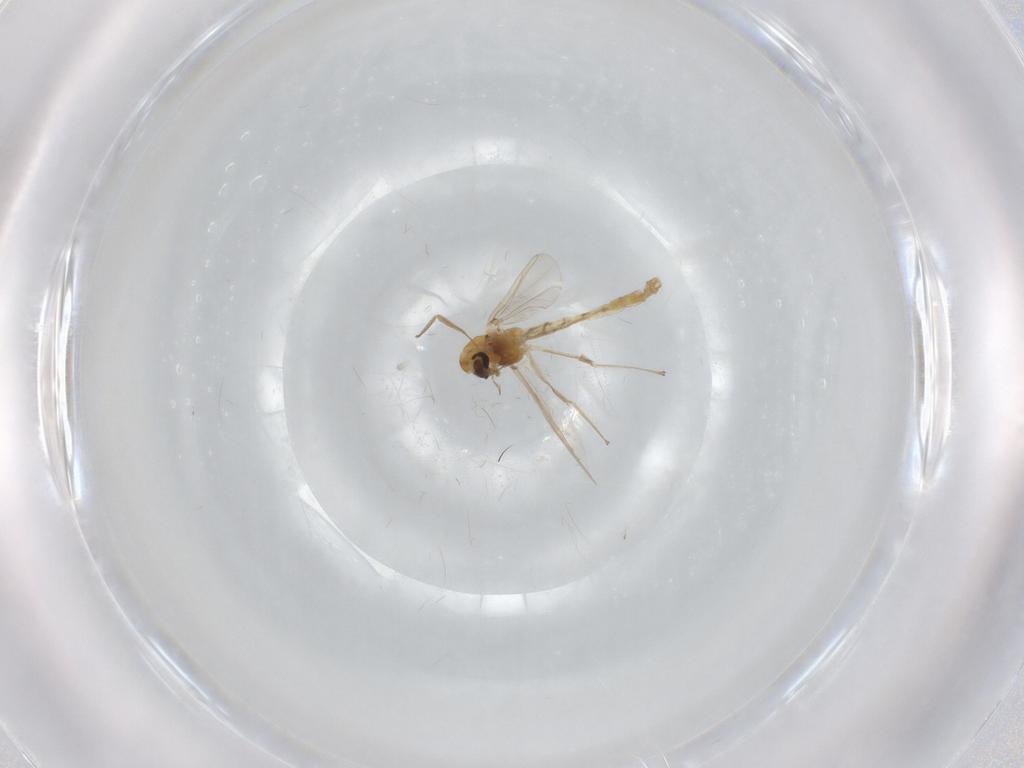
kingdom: Animalia
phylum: Arthropoda
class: Insecta
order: Diptera
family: Chironomidae
